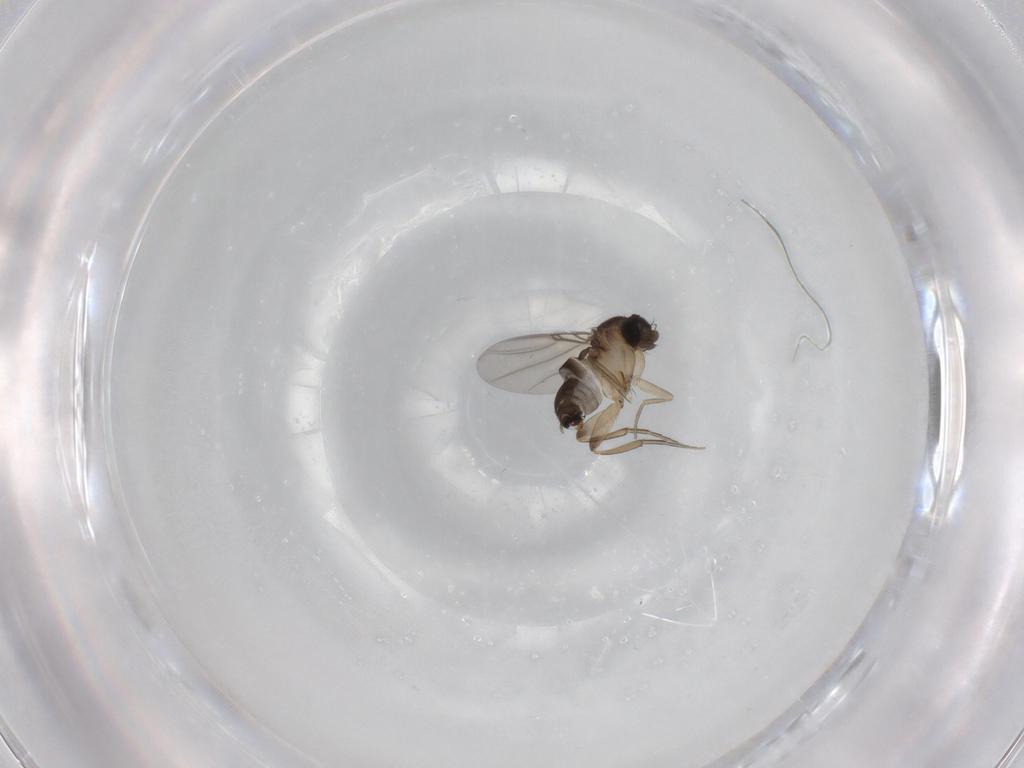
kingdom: Animalia
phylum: Arthropoda
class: Insecta
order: Diptera
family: Phoridae
